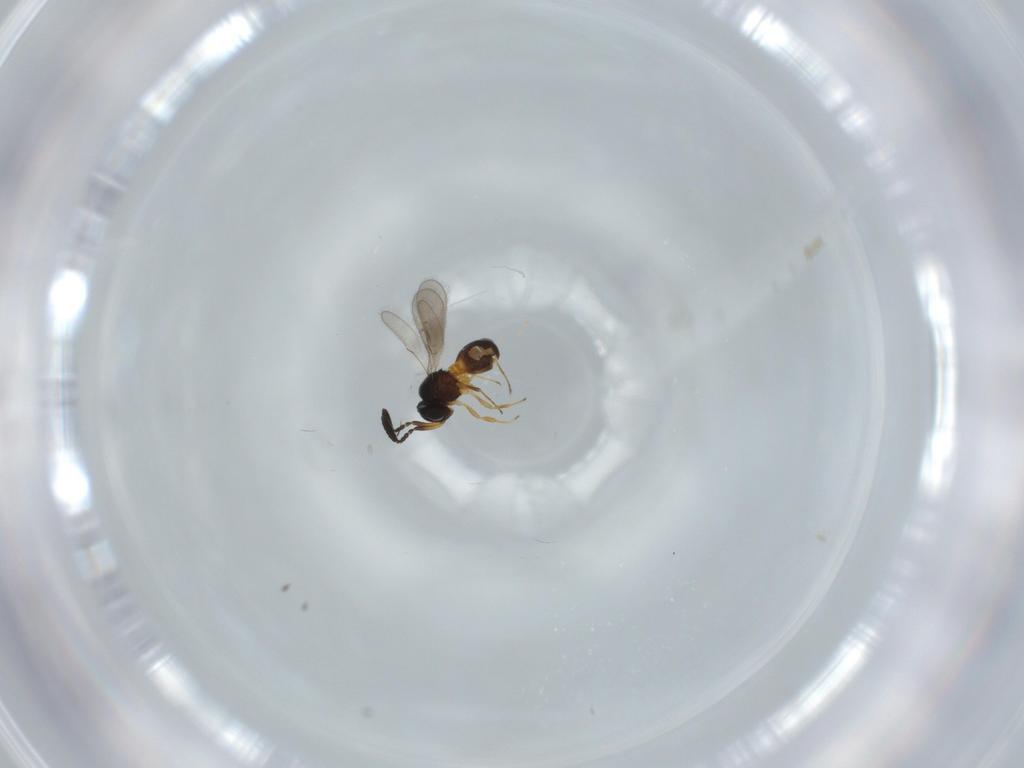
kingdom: Animalia
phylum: Arthropoda
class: Insecta
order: Hymenoptera
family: Scelionidae
